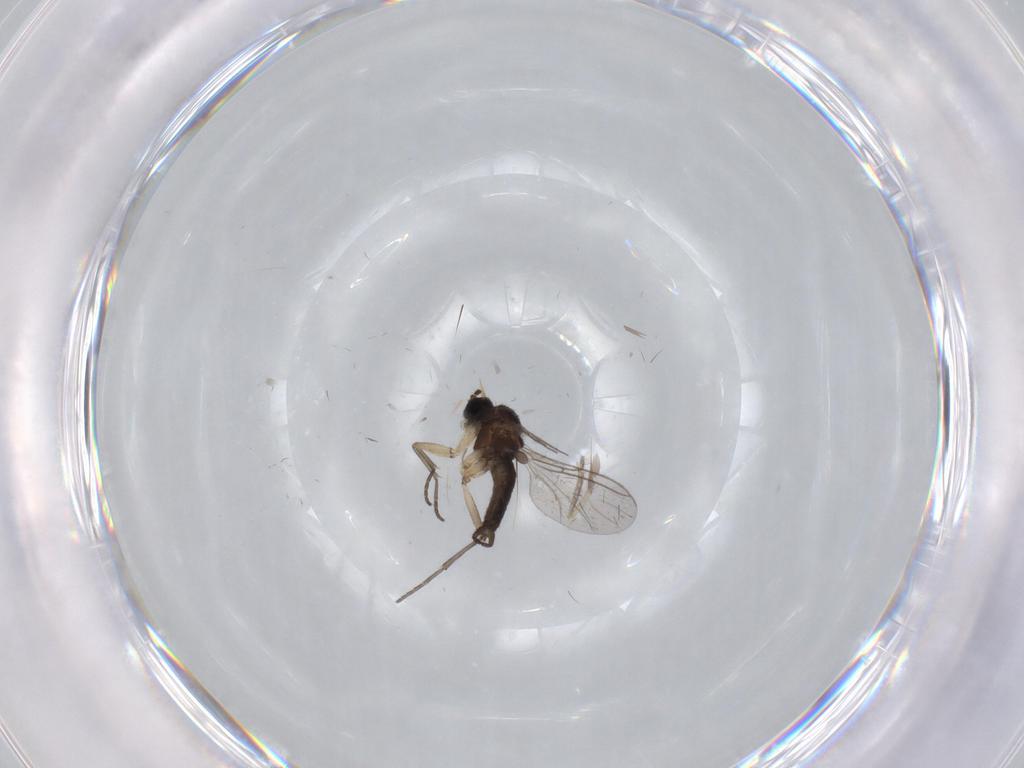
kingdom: Animalia
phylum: Arthropoda
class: Insecta
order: Diptera
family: Sciaridae
